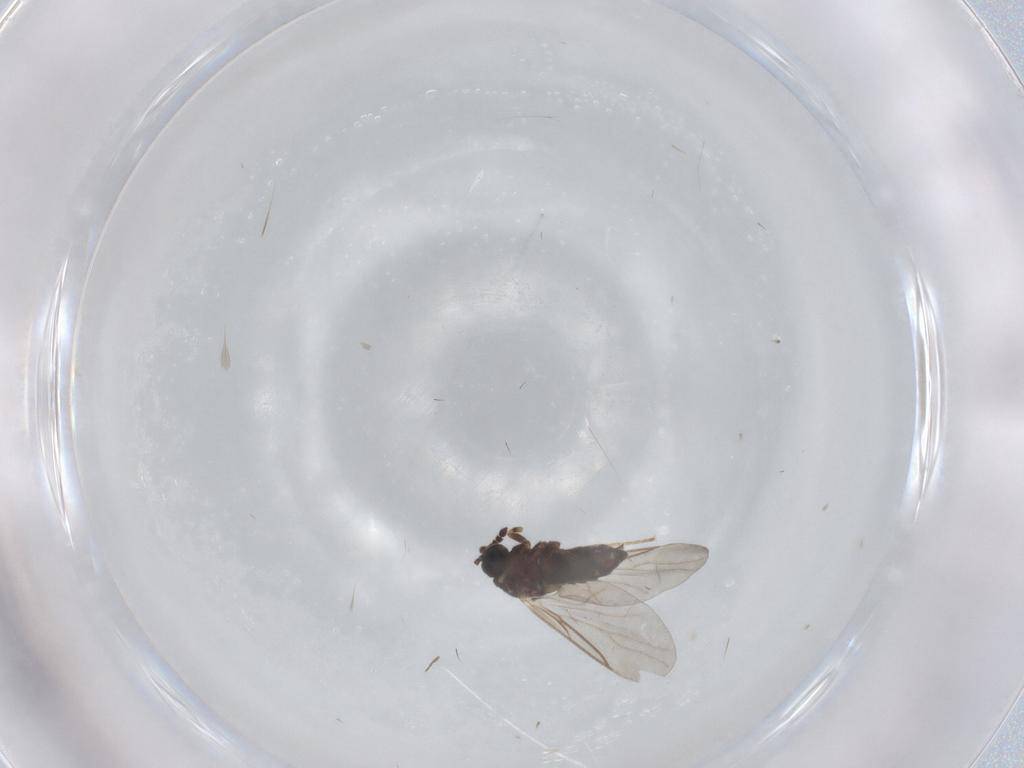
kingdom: Animalia
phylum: Arthropoda
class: Insecta
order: Diptera
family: Scatopsidae
